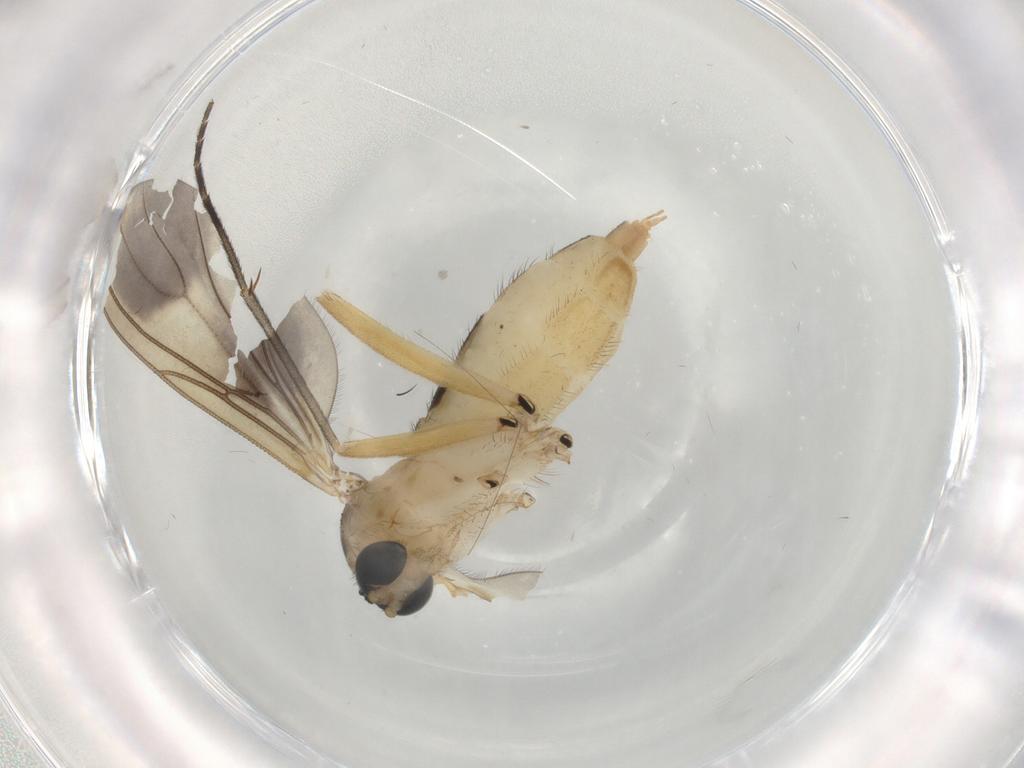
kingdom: Animalia
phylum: Arthropoda
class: Insecta
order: Diptera
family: Sciaridae
